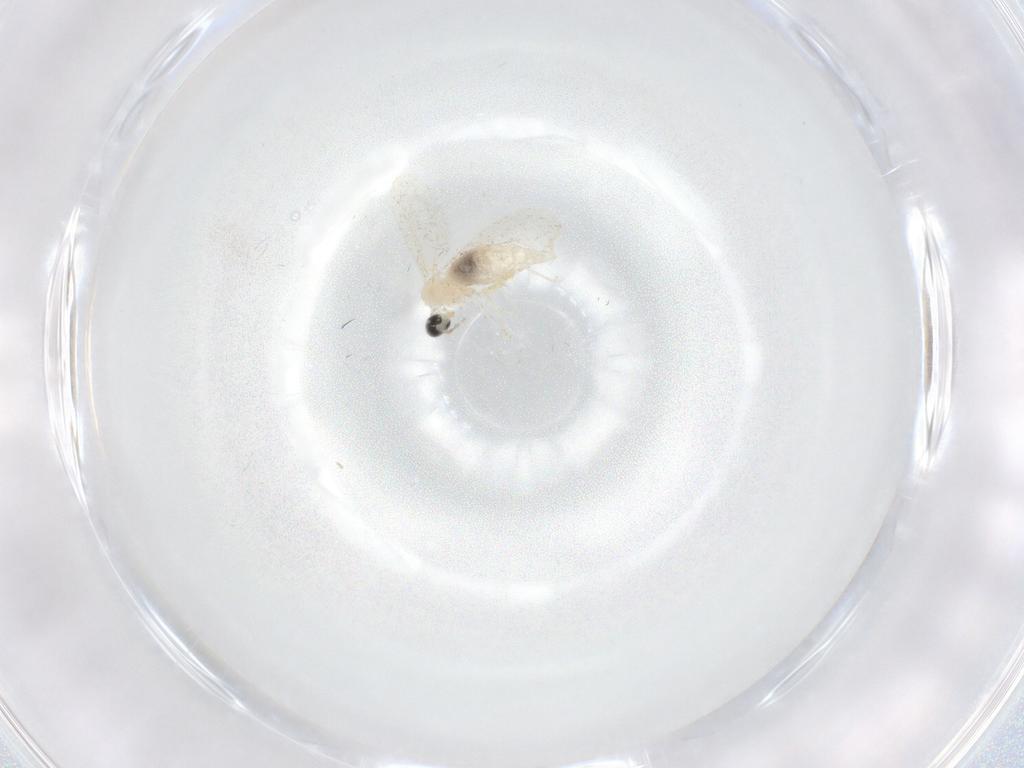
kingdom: Animalia
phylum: Arthropoda
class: Insecta
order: Diptera
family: Cecidomyiidae
